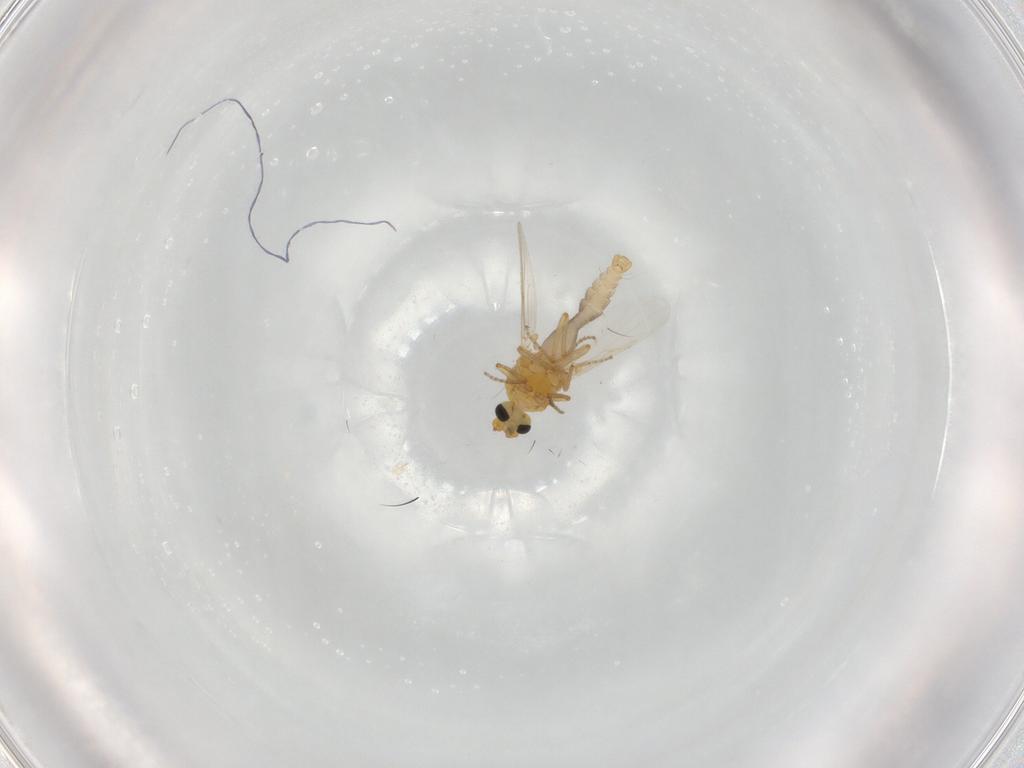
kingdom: Animalia
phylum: Arthropoda
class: Insecta
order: Diptera
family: Ceratopogonidae
